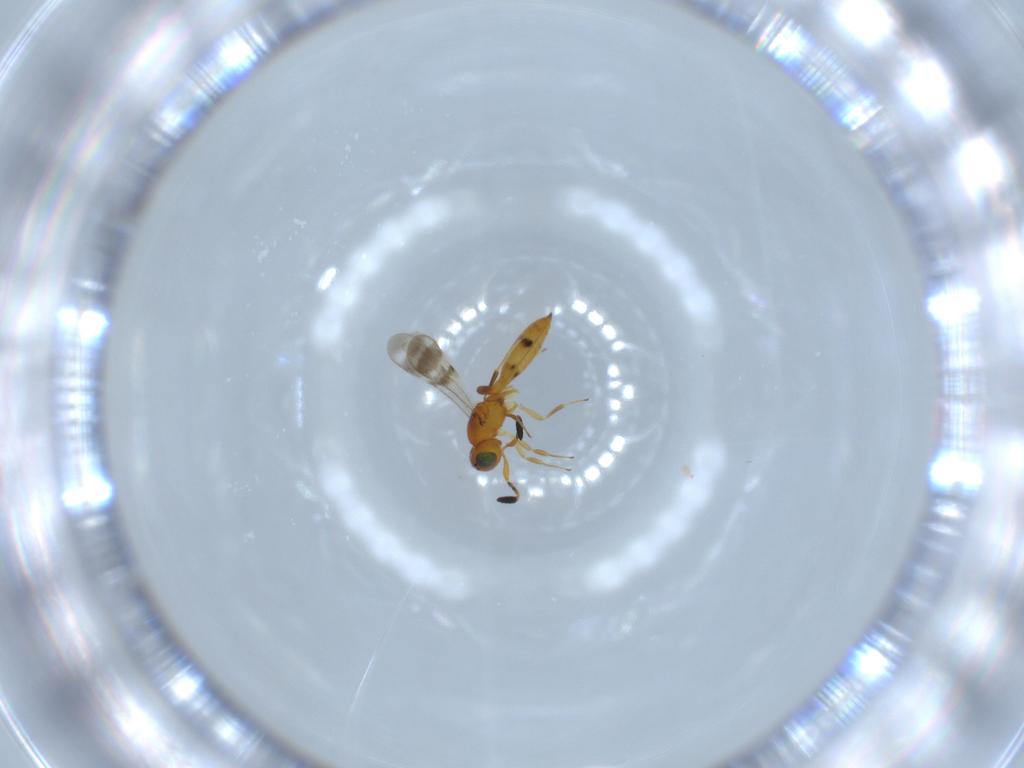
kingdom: Animalia
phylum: Arthropoda
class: Insecta
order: Hymenoptera
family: Scelionidae
